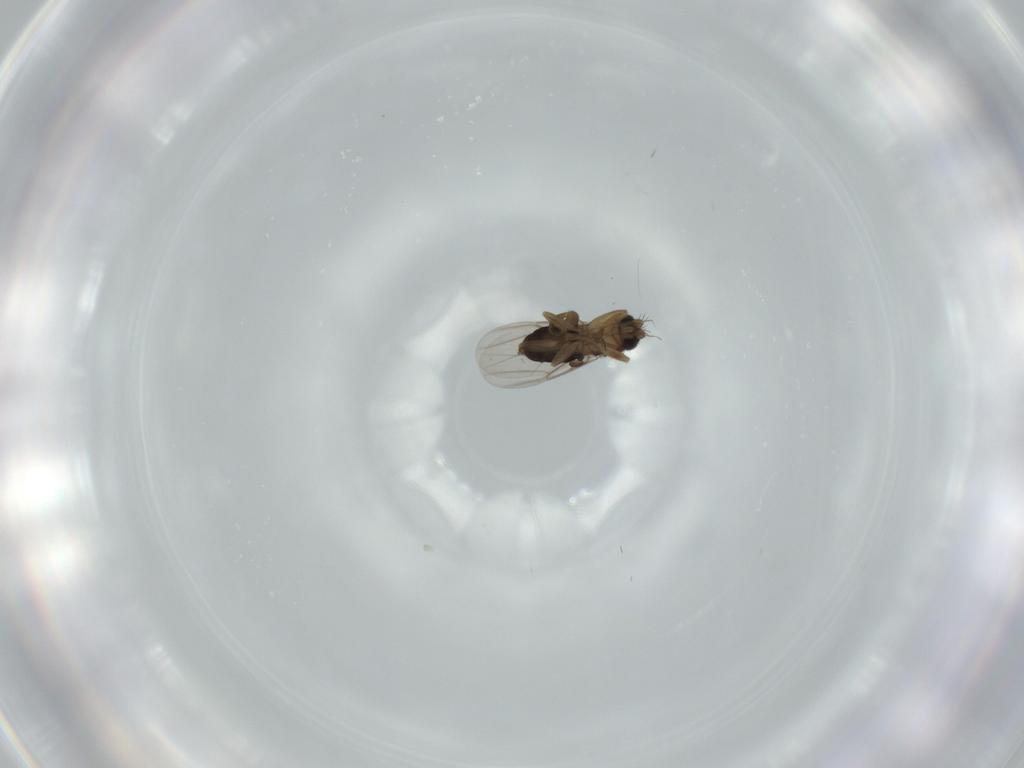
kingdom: Animalia
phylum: Arthropoda
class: Insecta
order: Diptera
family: Phoridae
